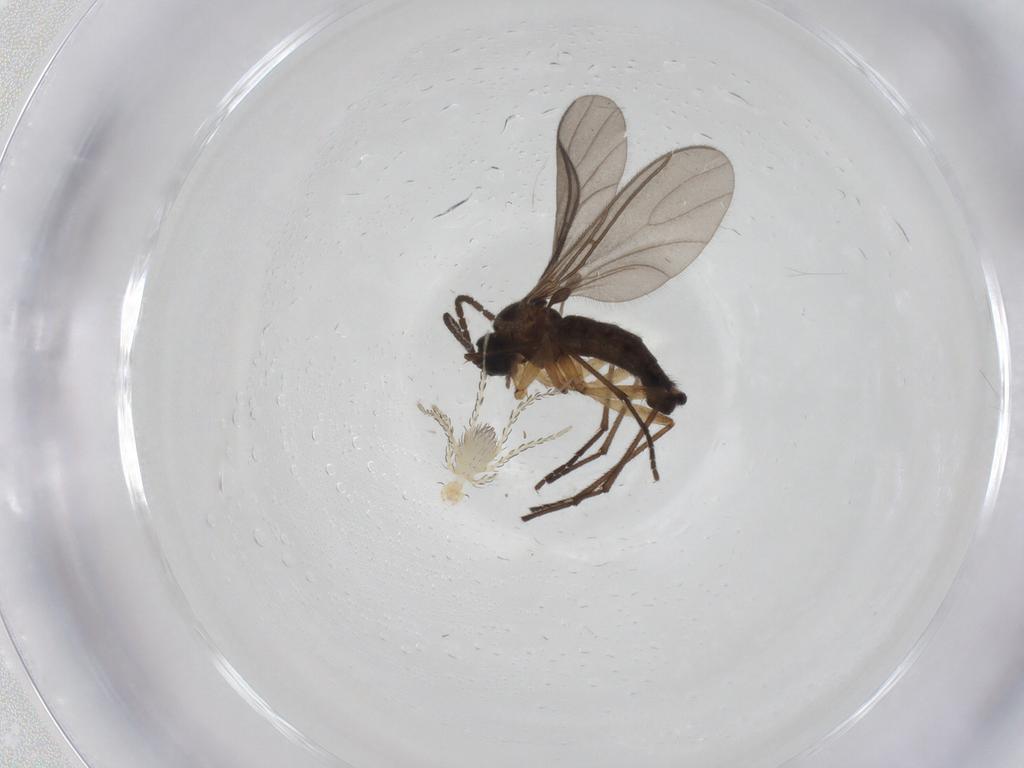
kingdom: Animalia
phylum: Arthropoda
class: Insecta
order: Diptera
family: Sciaridae
